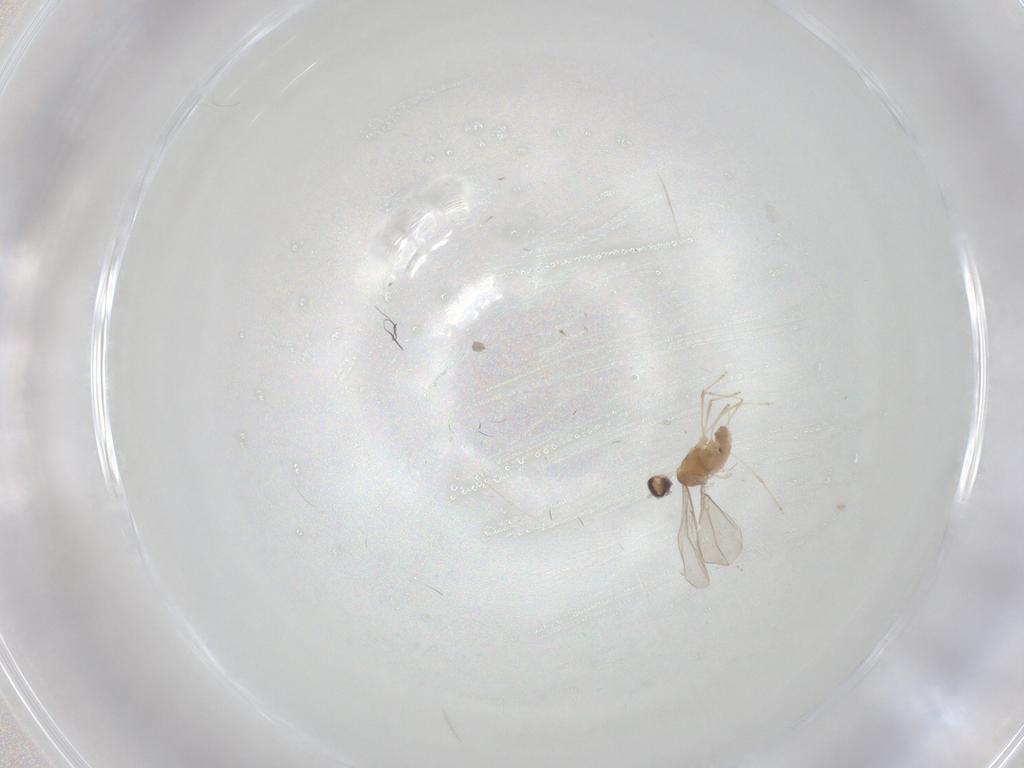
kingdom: Animalia
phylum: Arthropoda
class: Insecta
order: Diptera
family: Cecidomyiidae
